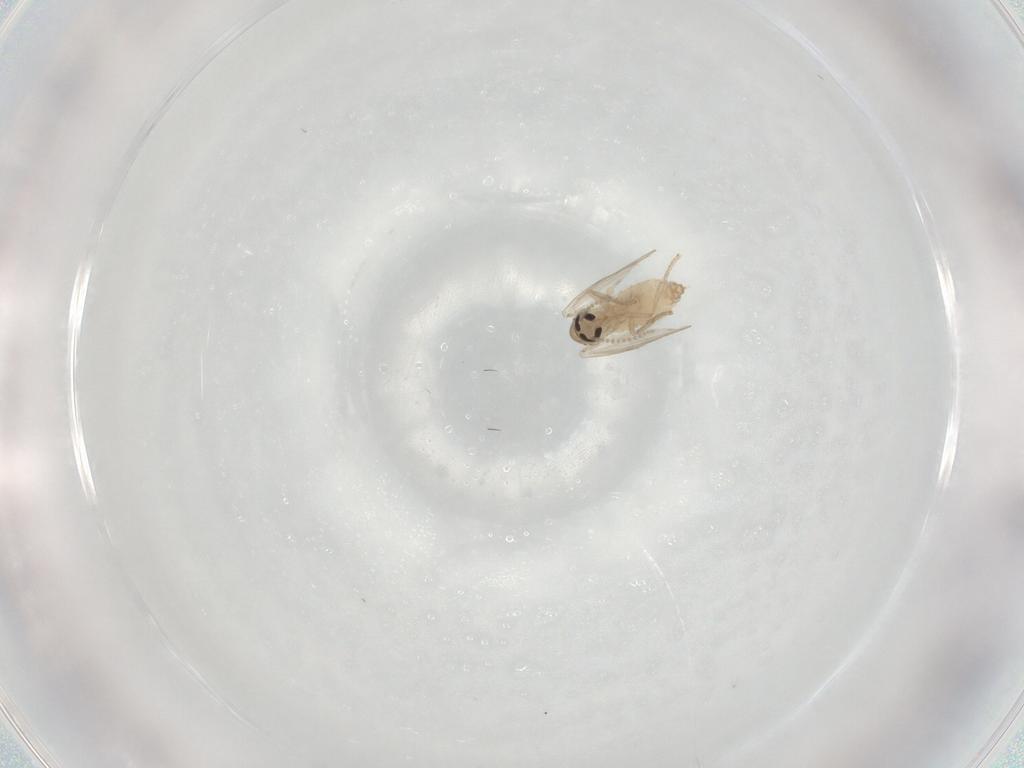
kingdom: Animalia
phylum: Arthropoda
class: Insecta
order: Diptera
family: Psychodidae
